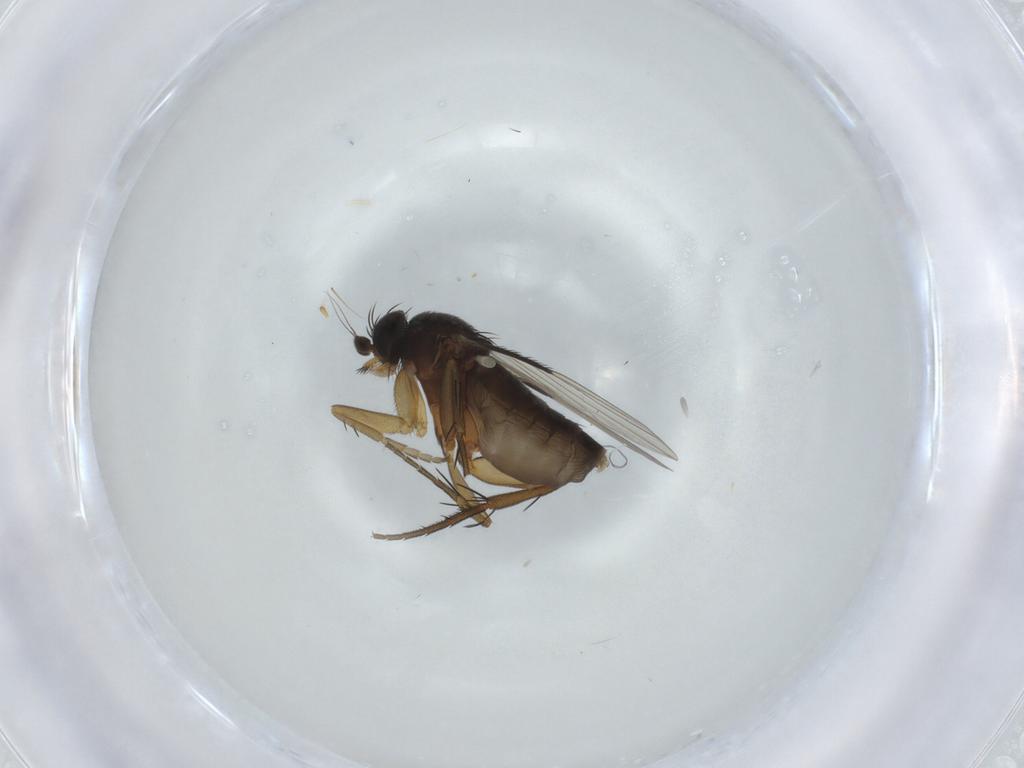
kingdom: Animalia
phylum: Arthropoda
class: Insecta
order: Diptera
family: Phoridae
